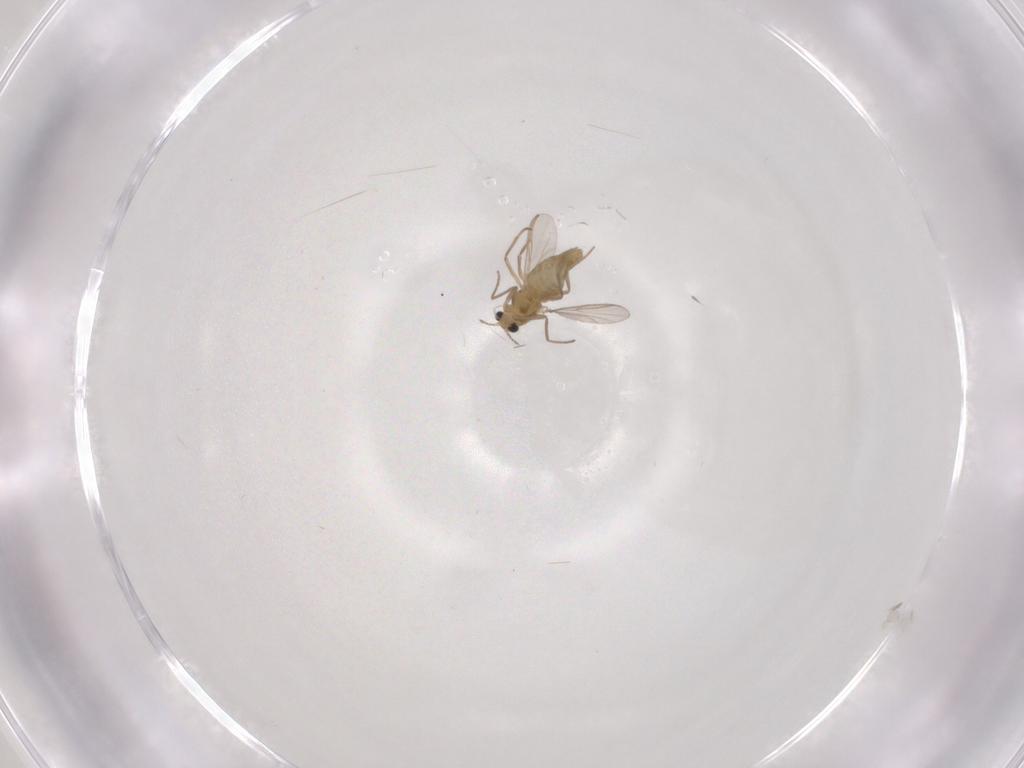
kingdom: Animalia
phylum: Arthropoda
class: Insecta
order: Diptera
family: Chironomidae
